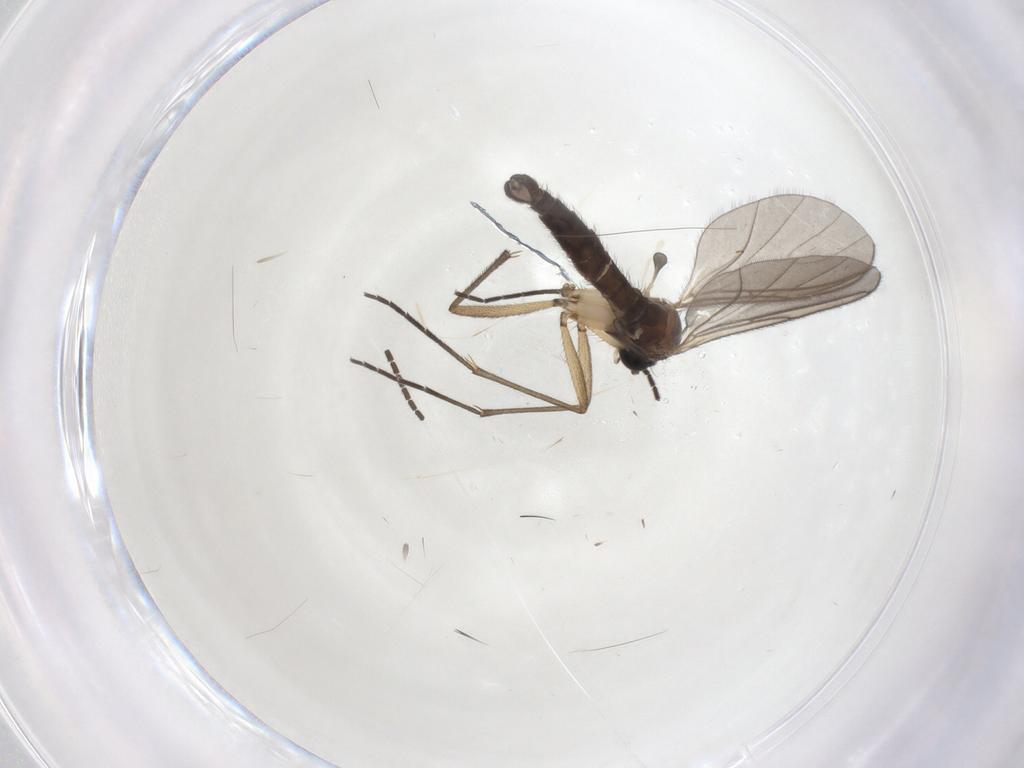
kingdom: Animalia
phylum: Arthropoda
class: Insecta
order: Diptera
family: Sciaridae
